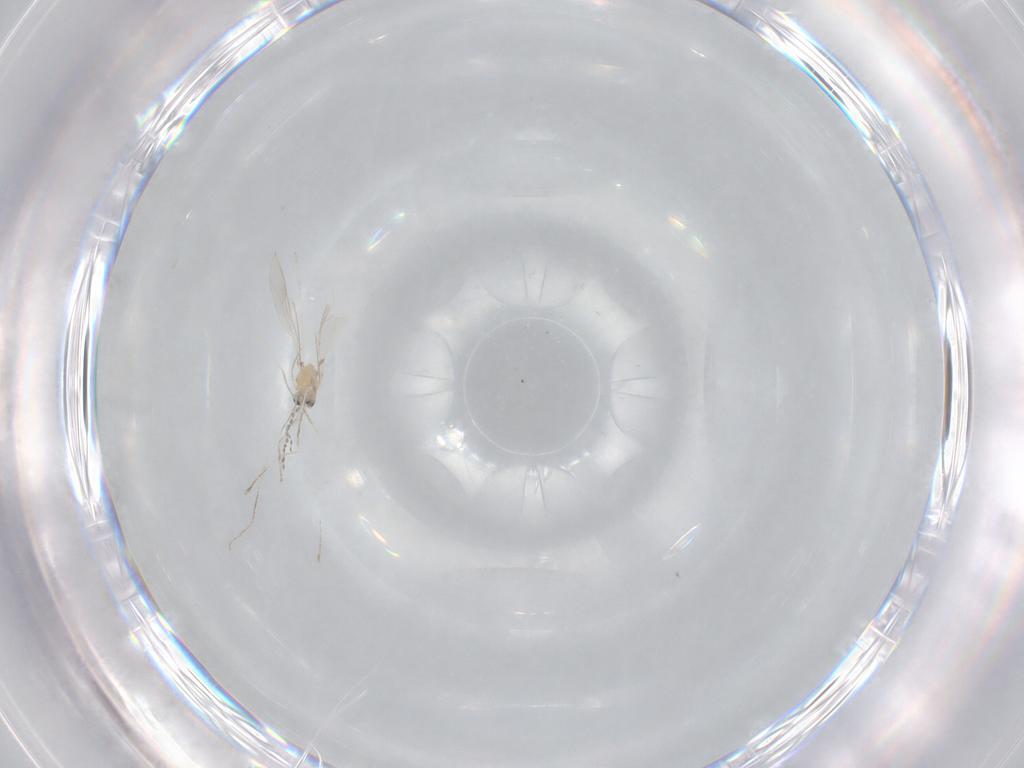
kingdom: Animalia
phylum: Arthropoda
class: Insecta
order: Diptera
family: Cecidomyiidae
